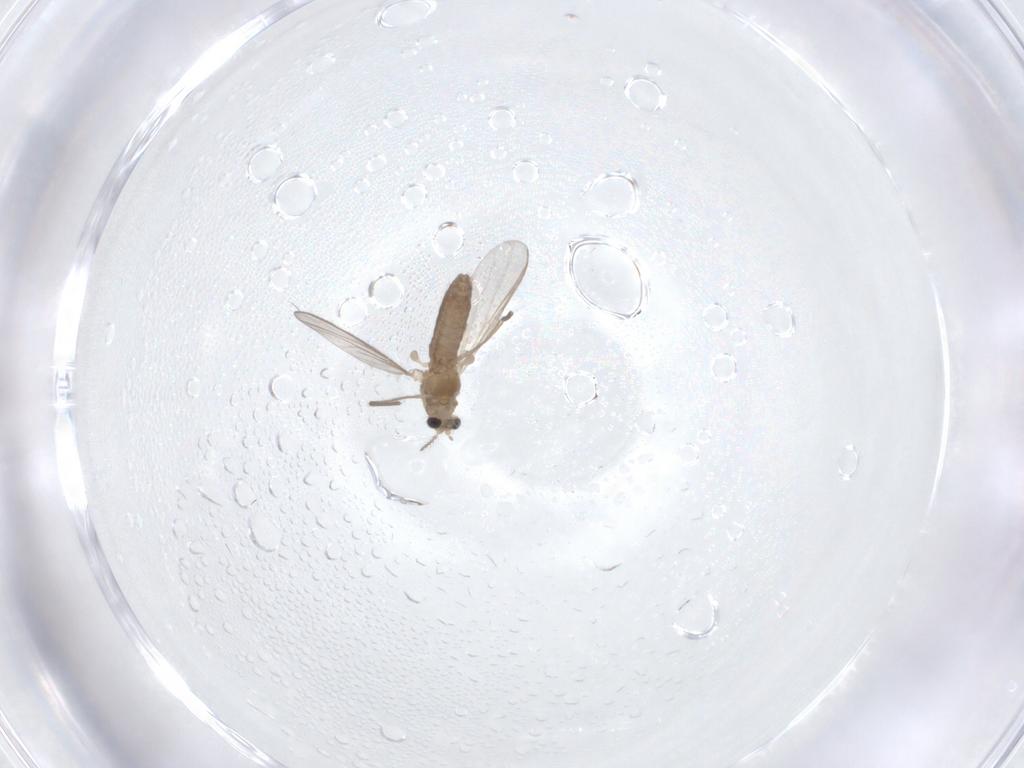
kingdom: Animalia
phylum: Arthropoda
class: Insecta
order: Diptera
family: Chironomidae
